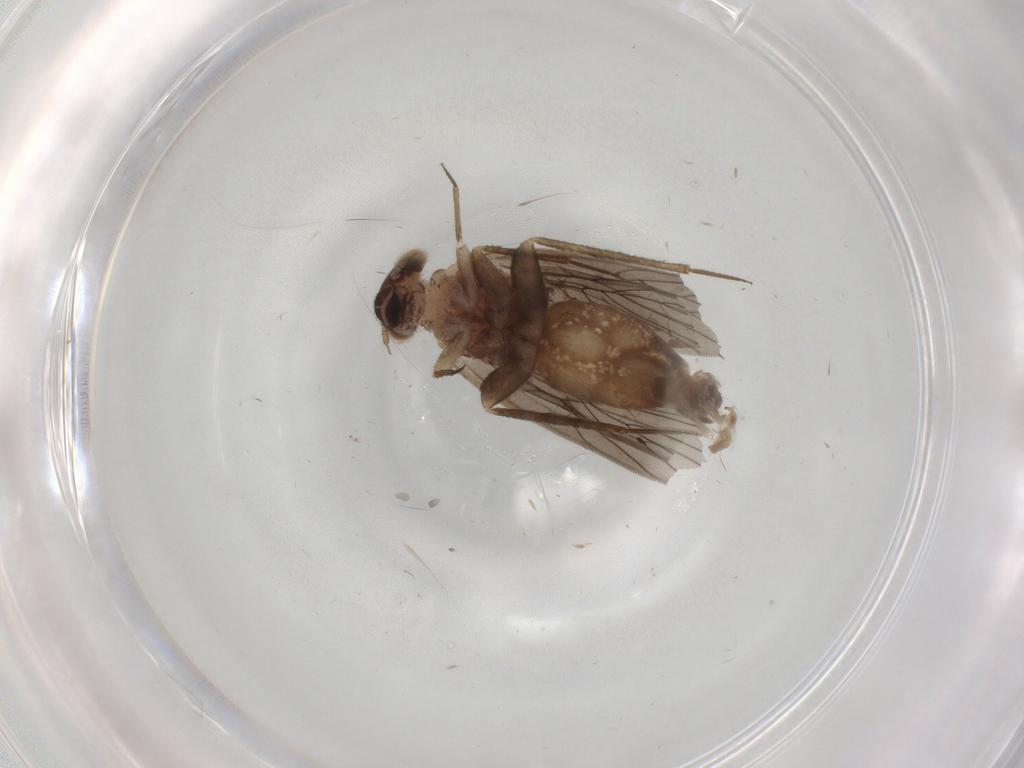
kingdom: Animalia
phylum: Arthropoda
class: Insecta
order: Psocodea
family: Lepidopsocidae
